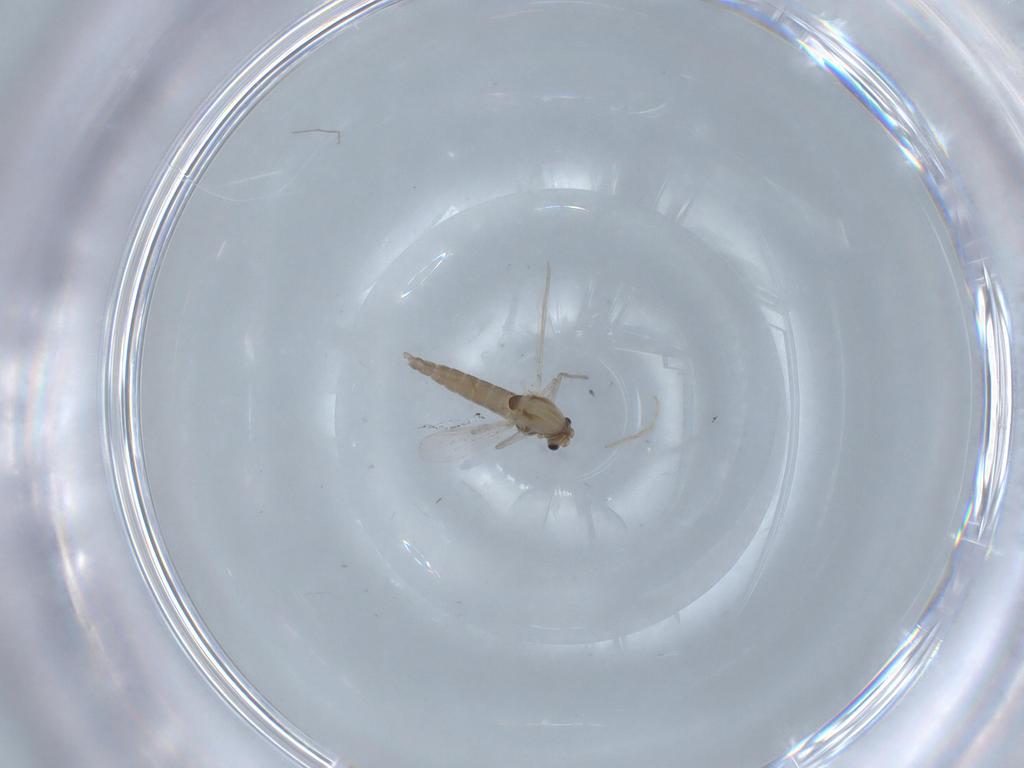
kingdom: Animalia
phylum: Arthropoda
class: Insecta
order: Diptera
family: Chironomidae
